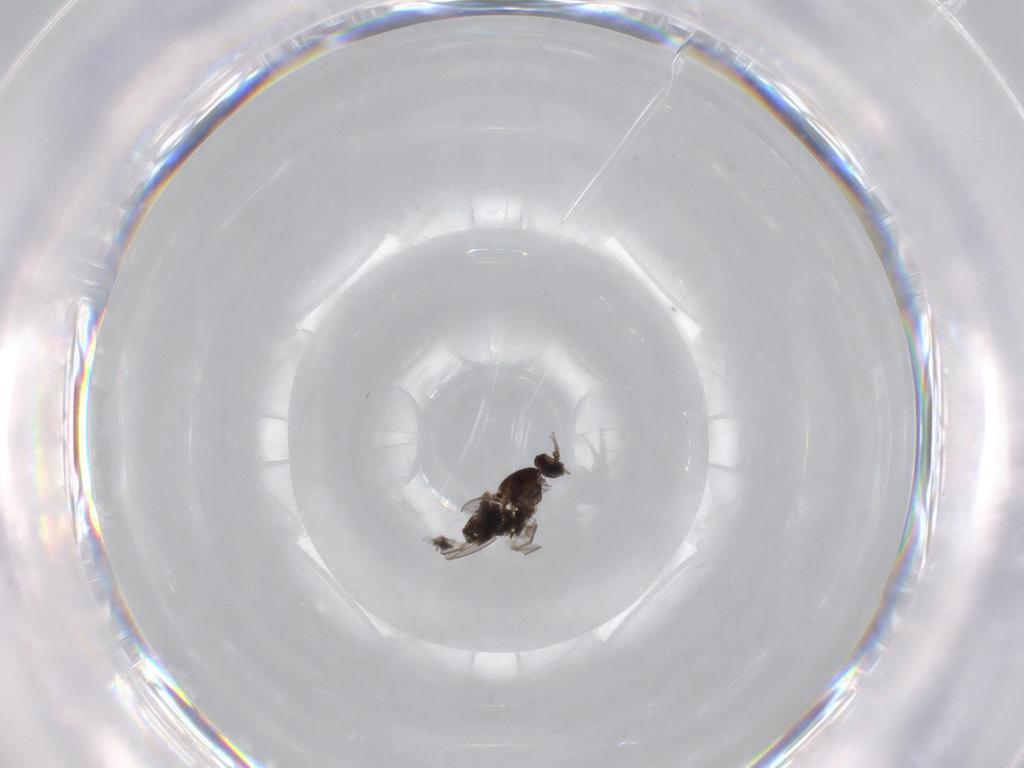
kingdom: Animalia
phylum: Arthropoda
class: Insecta
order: Diptera
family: Cecidomyiidae
